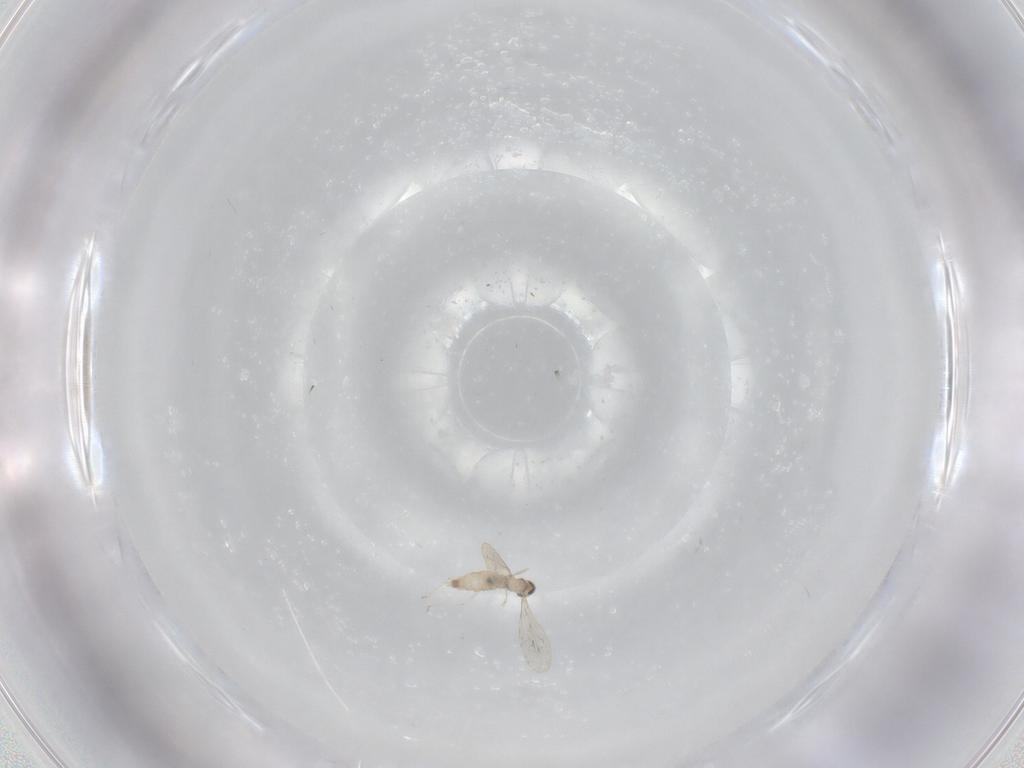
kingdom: Animalia
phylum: Arthropoda
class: Insecta
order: Diptera
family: Cecidomyiidae
